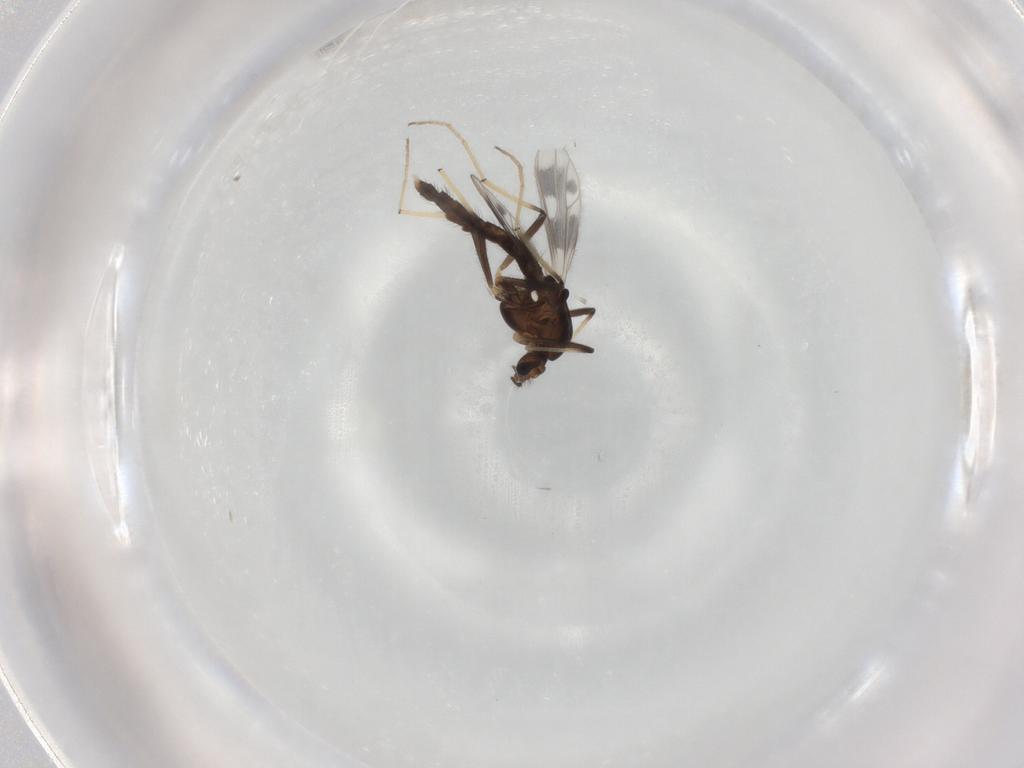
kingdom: Animalia
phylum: Arthropoda
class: Insecta
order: Diptera
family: Chironomidae
